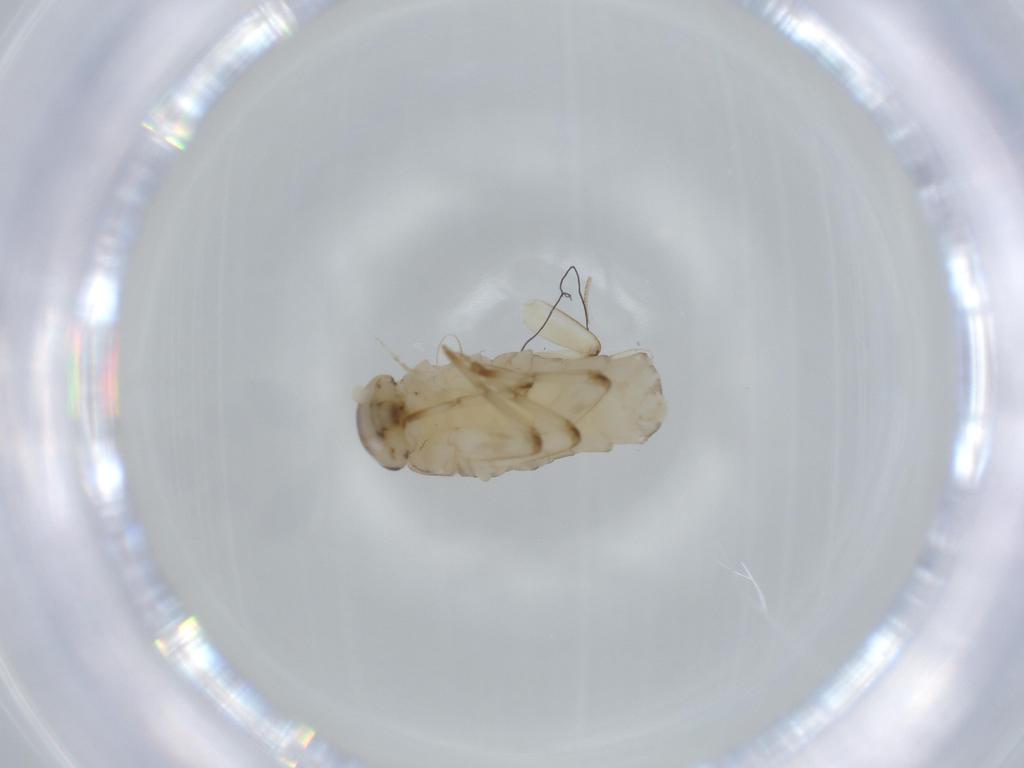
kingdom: Animalia
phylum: Arthropoda
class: Insecta
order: Ephemeroptera
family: Baetidae
